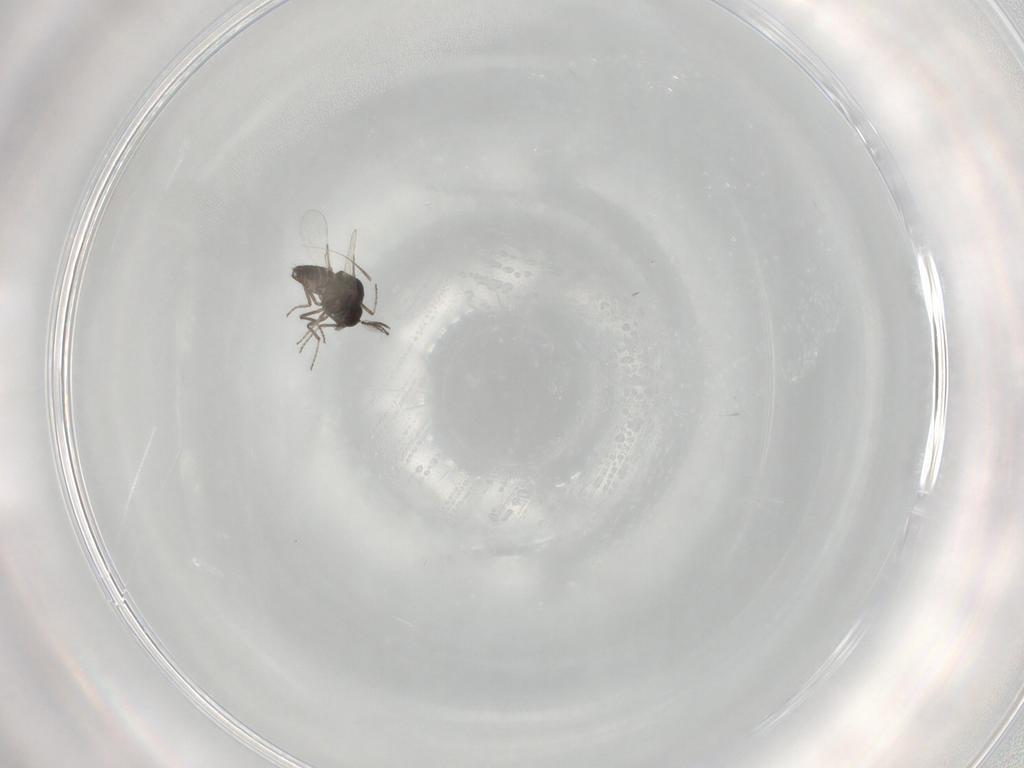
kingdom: Animalia
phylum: Arthropoda
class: Insecta
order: Diptera
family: Ceratopogonidae
